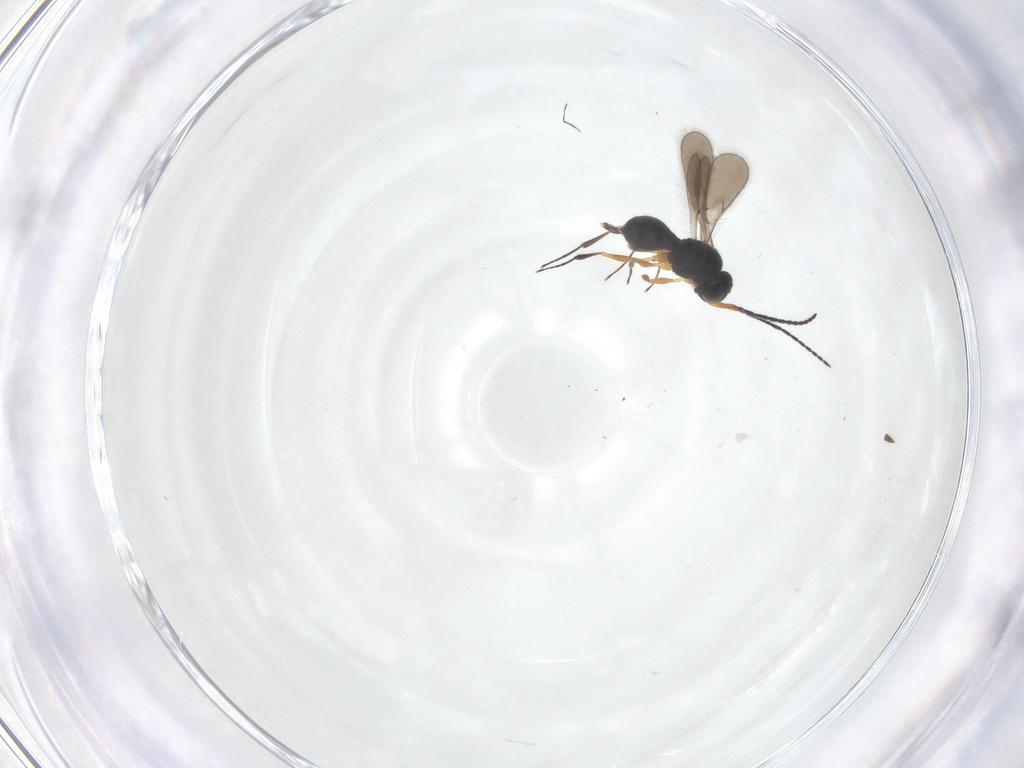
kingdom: Animalia
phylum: Arthropoda
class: Insecta
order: Hymenoptera
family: Scelionidae
